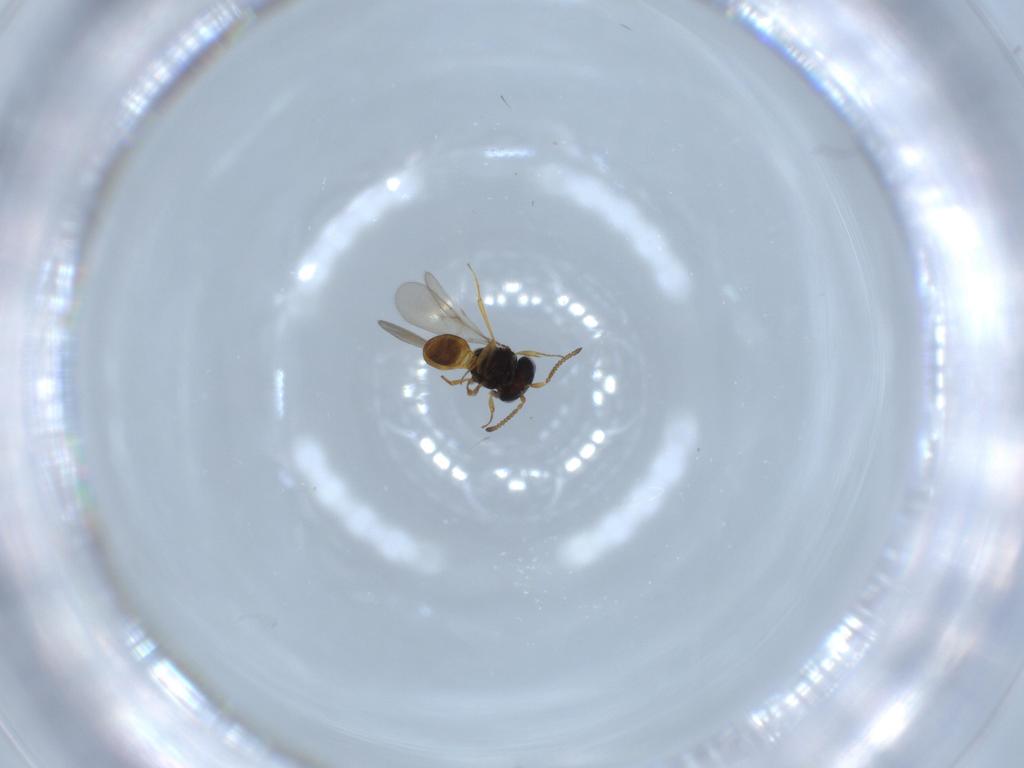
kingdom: Animalia
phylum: Arthropoda
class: Insecta
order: Hymenoptera
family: Scelionidae
